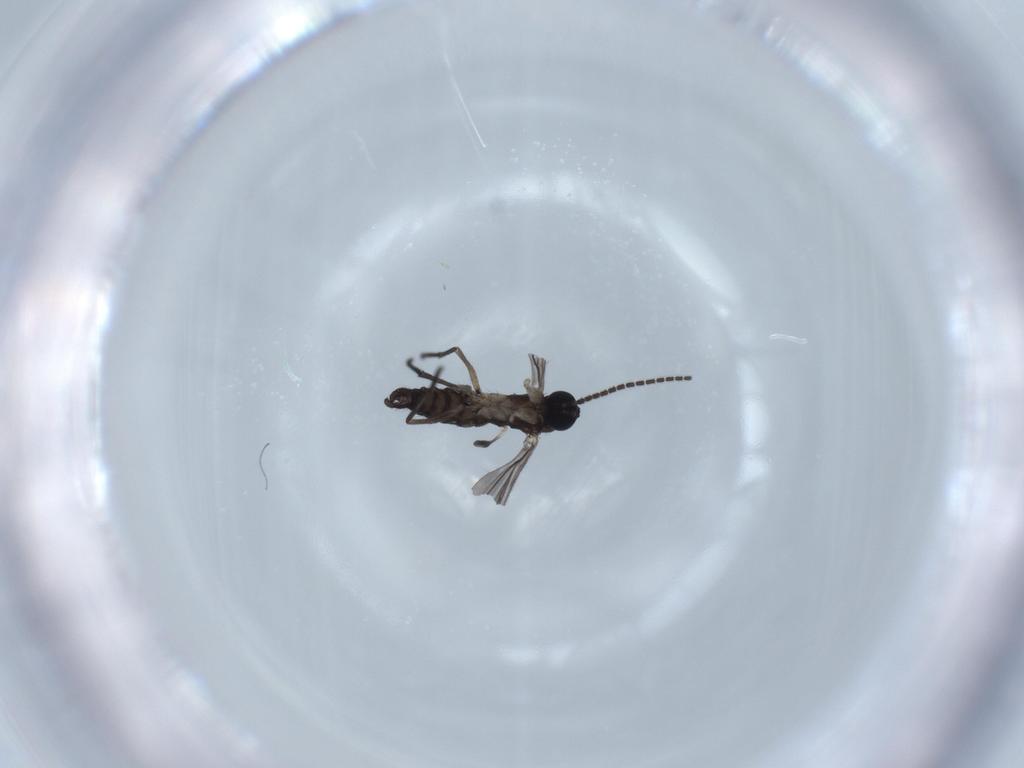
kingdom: Animalia
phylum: Arthropoda
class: Insecta
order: Diptera
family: Sciaridae
